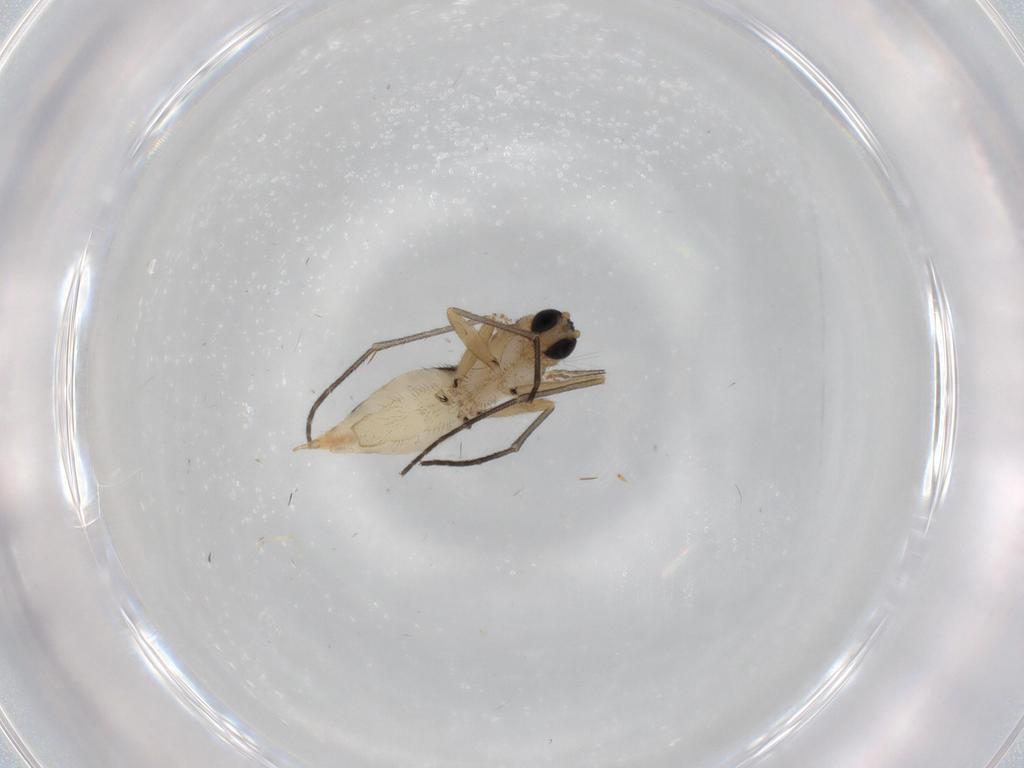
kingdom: Animalia
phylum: Arthropoda
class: Insecta
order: Diptera
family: Sciaridae
